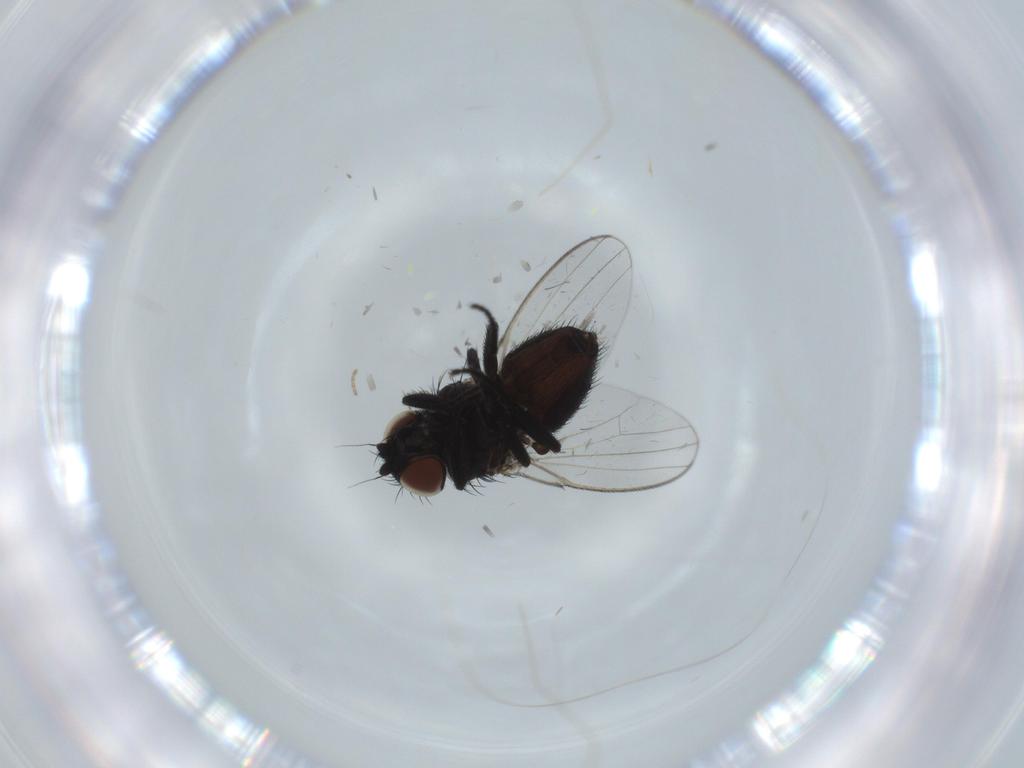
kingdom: Animalia
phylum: Arthropoda
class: Insecta
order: Diptera
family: Milichiidae
